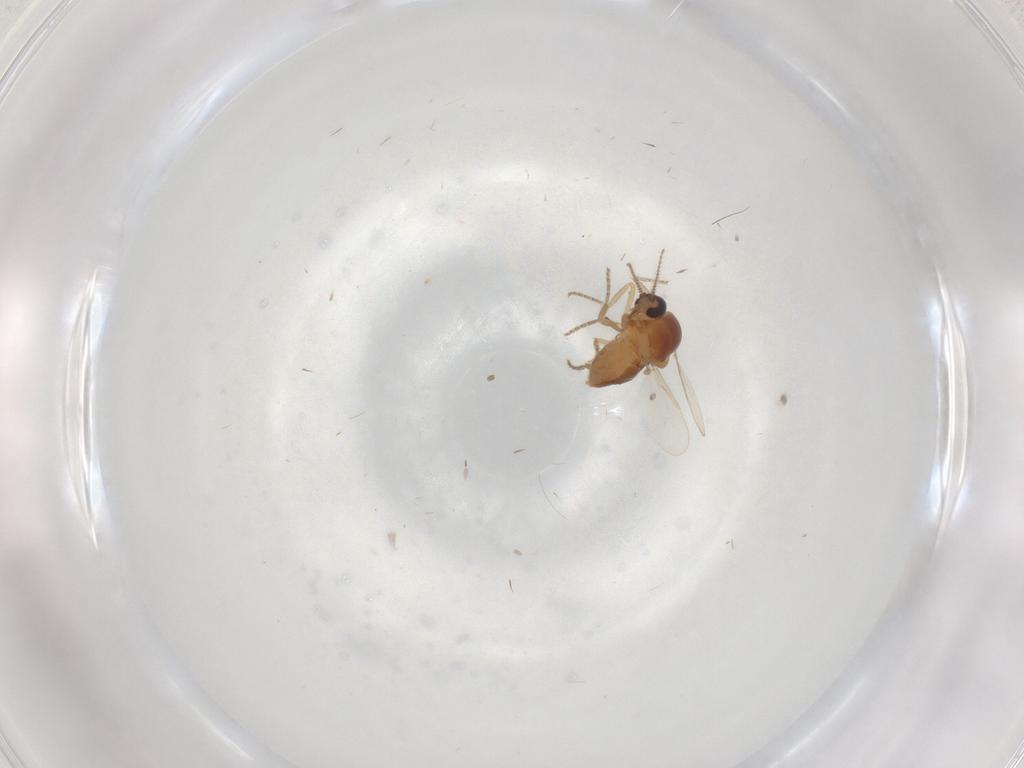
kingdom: Animalia
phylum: Arthropoda
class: Insecta
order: Diptera
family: Ceratopogonidae
